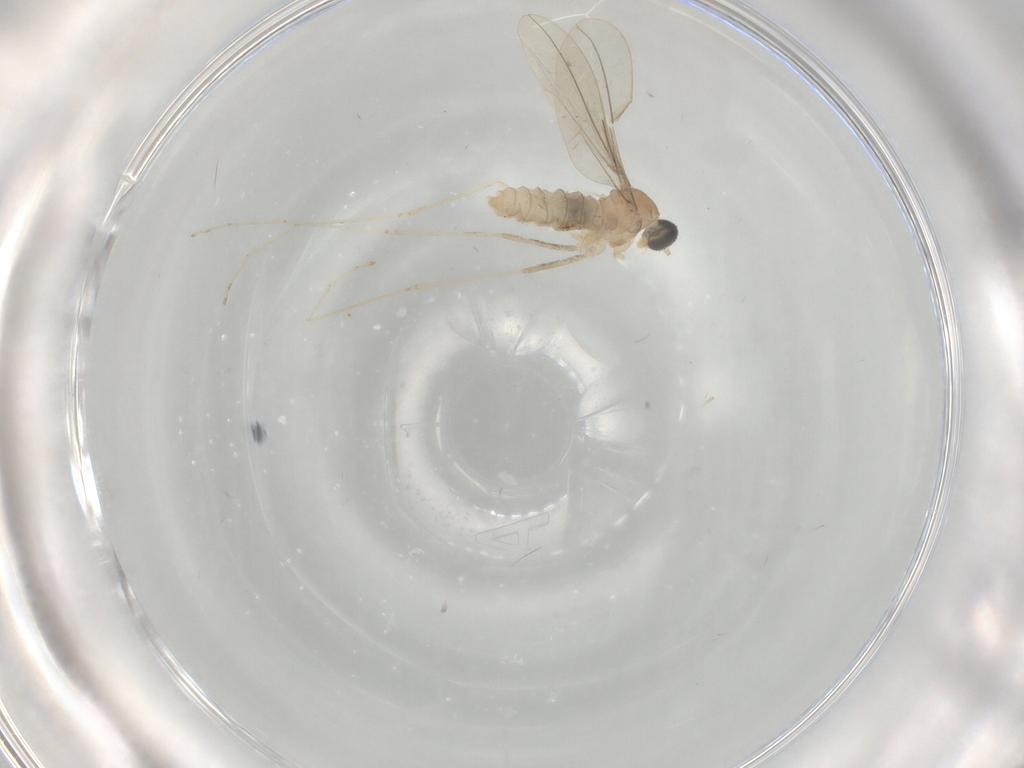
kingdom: Animalia
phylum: Arthropoda
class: Insecta
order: Diptera
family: Cecidomyiidae
